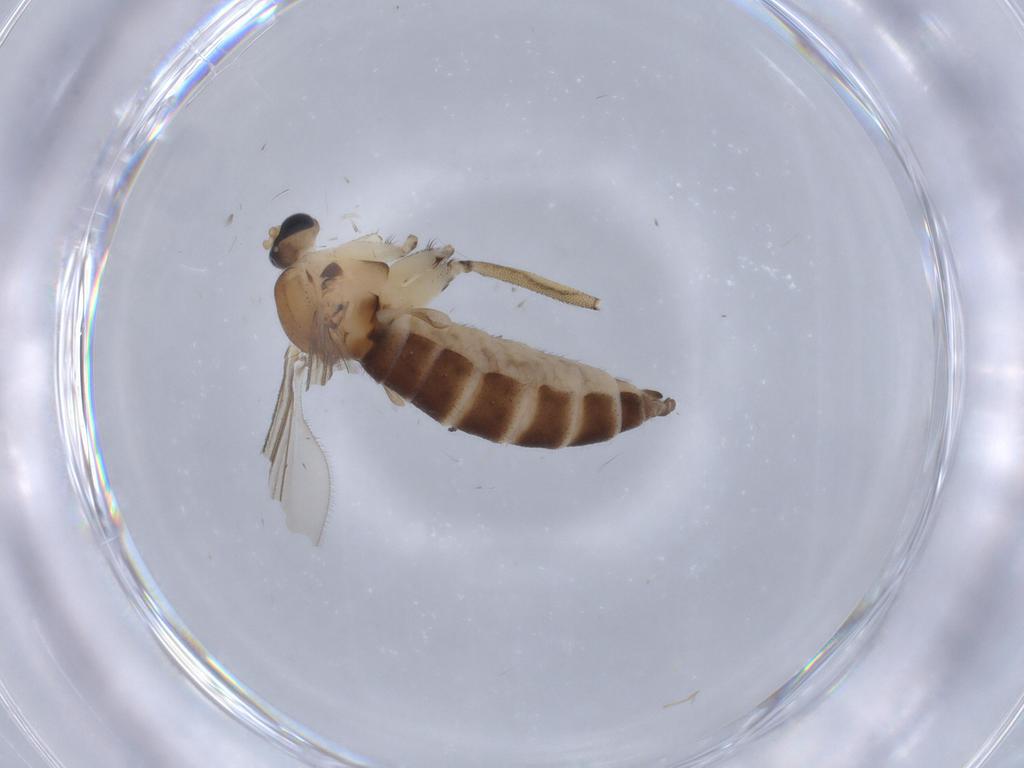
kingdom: Animalia
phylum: Arthropoda
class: Insecta
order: Diptera
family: Sciaridae
